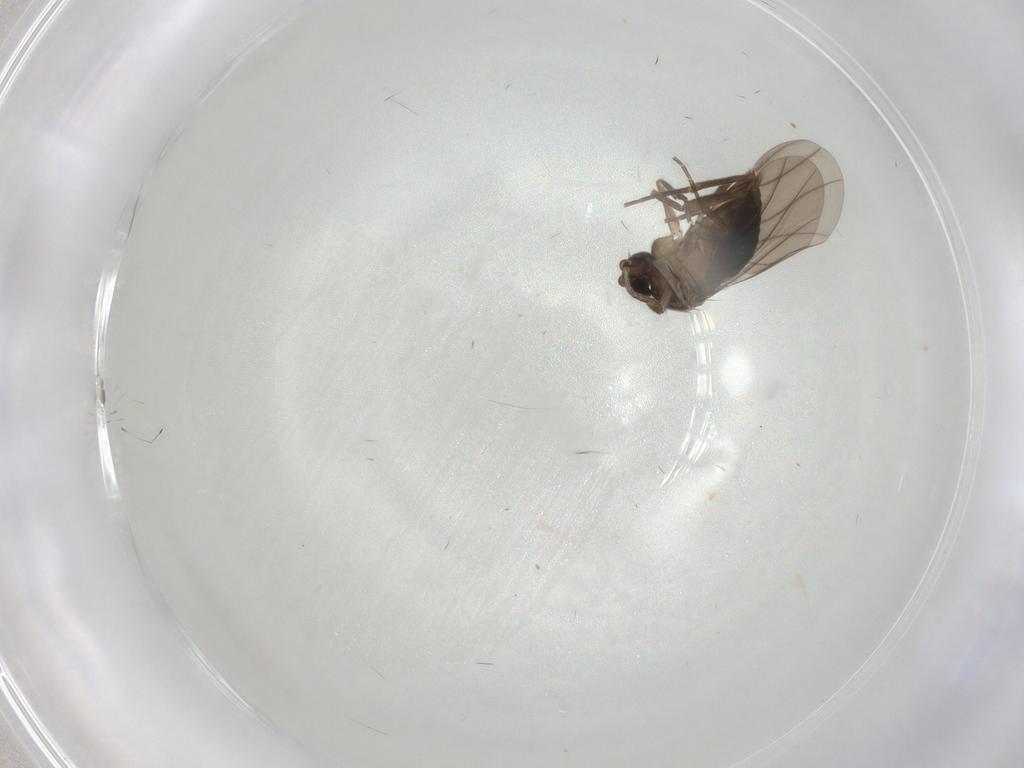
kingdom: Animalia
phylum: Arthropoda
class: Insecta
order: Diptera
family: Phoridae
